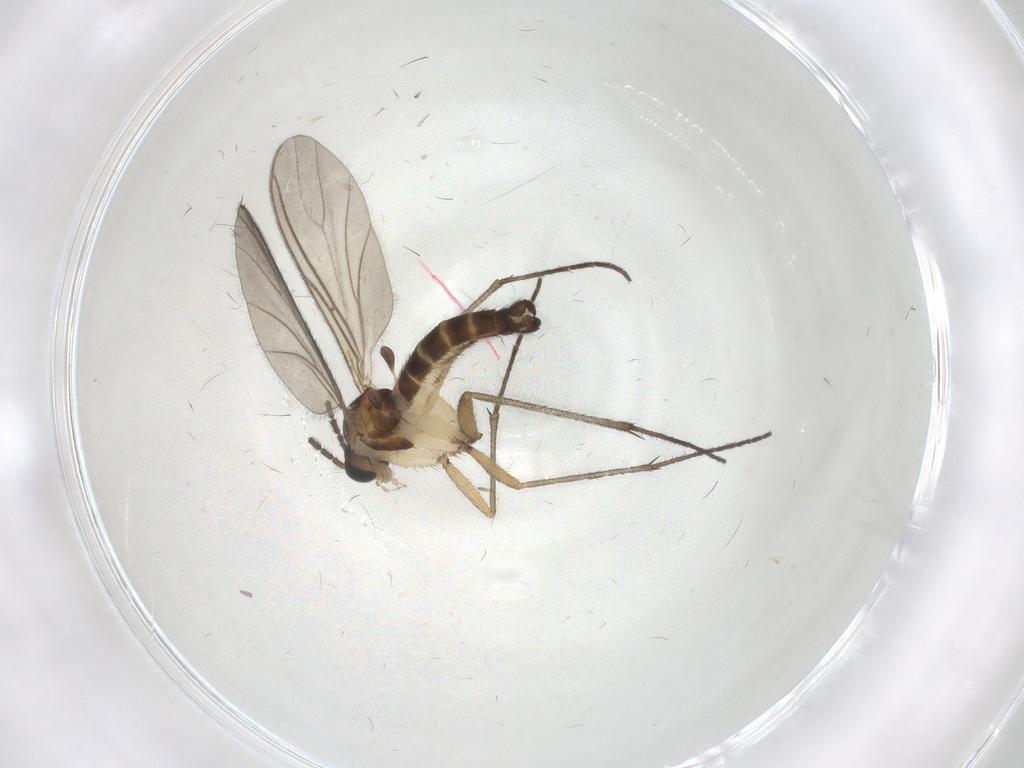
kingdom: Animalia
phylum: Arthropoda
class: Insecta
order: Diptera
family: Sciaridae
